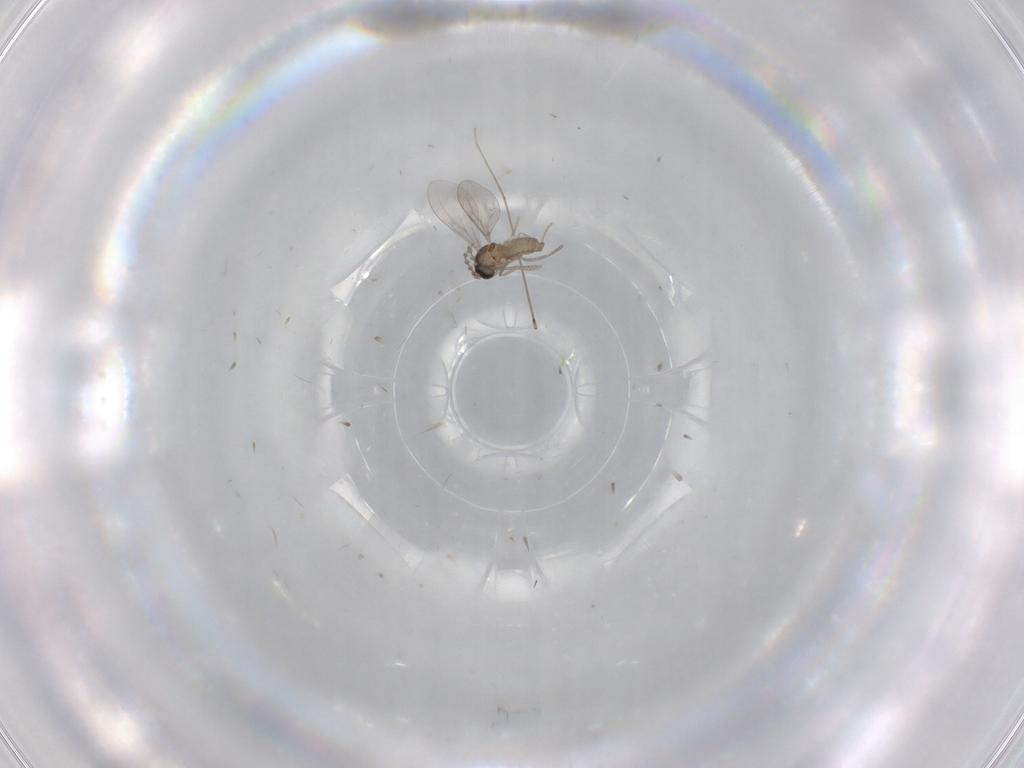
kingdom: Animalia
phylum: Arthropoda
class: Insecta
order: Diptera
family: Cecidomyiidae
